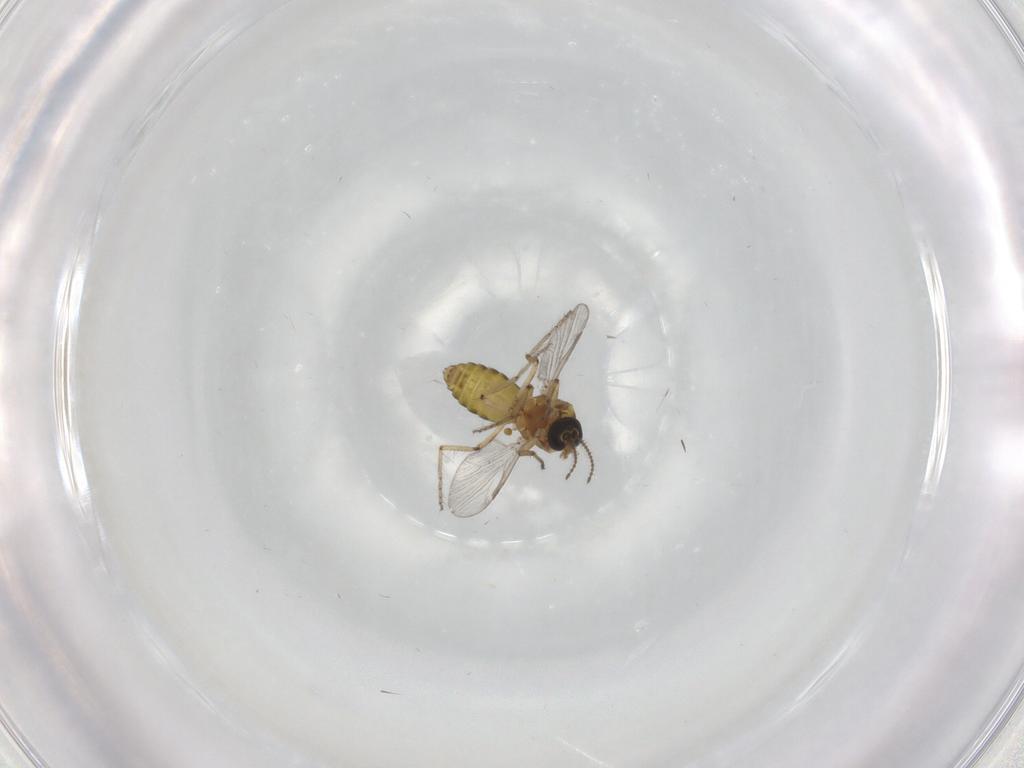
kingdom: Animalia
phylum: Arthropoda
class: Insecta
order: Diptera
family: Ceratopogonidae
